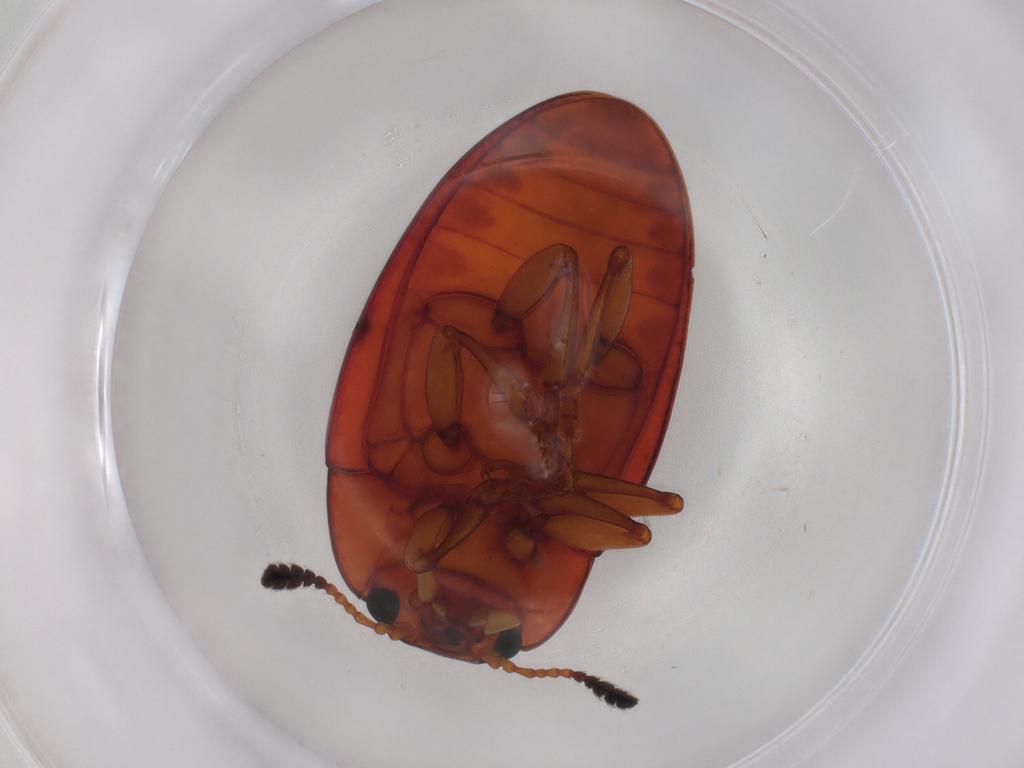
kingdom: Animalia
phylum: Arthropoda
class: Insecta
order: Coleoptera
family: Erotylidae
